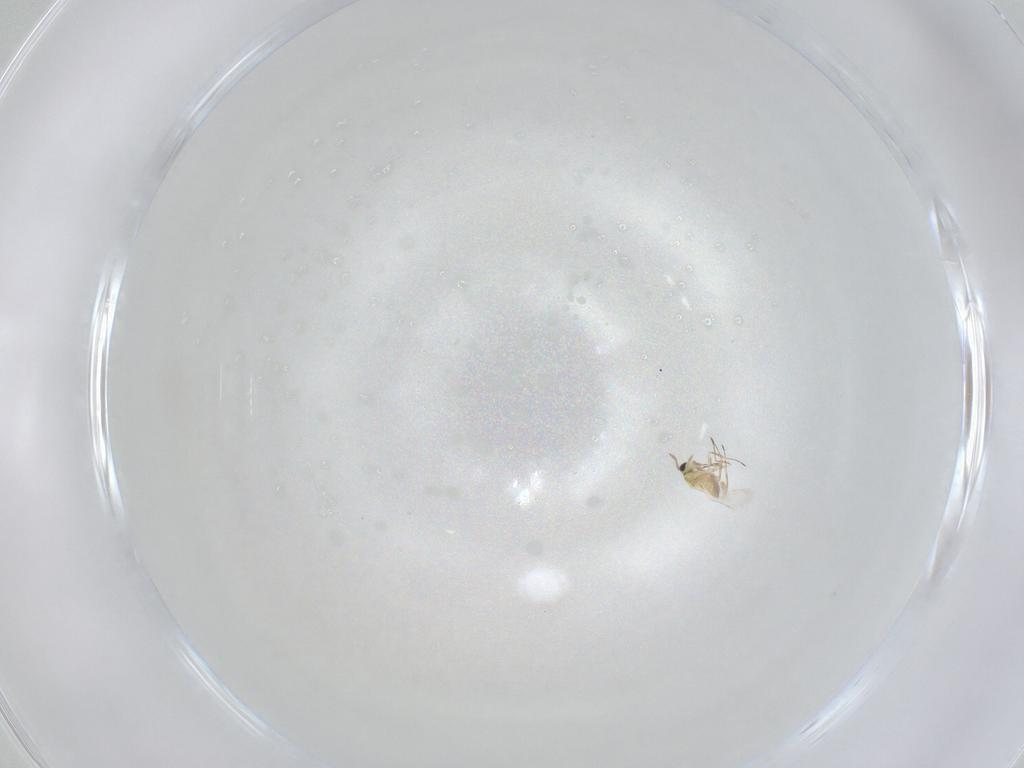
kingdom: Animalia
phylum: Arthropoda
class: Insecta
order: Hymenoptera
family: Trichogrammatidae
